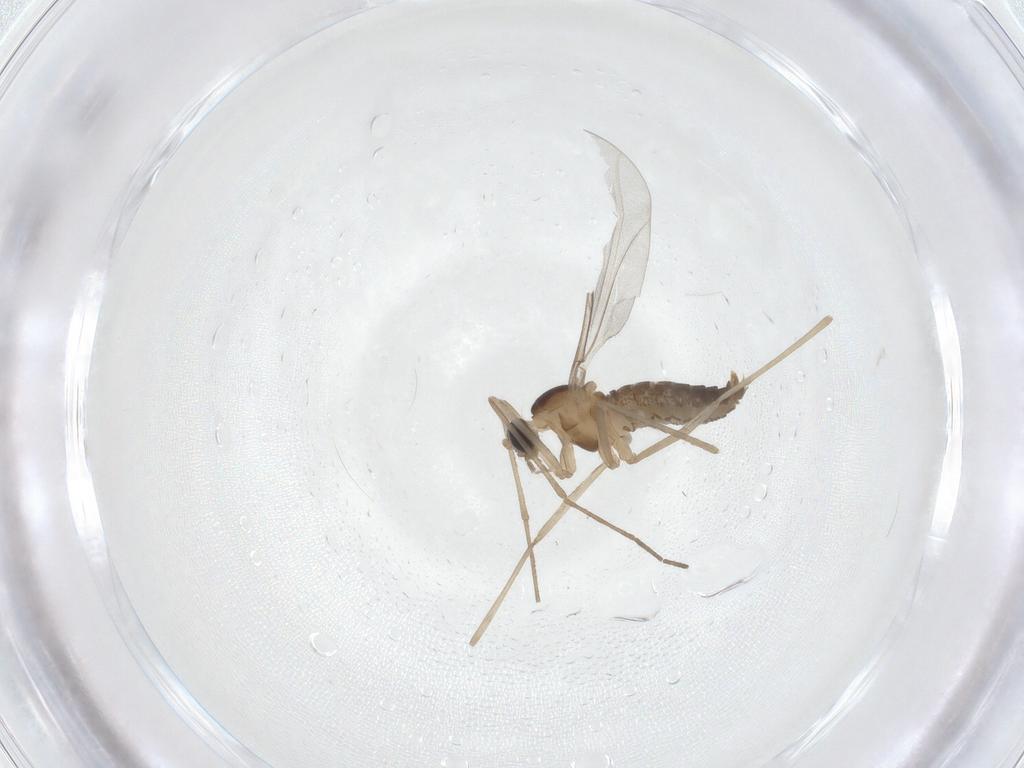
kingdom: Animalia
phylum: Arthropoda
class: Insecta
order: Diptera
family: Cecidomyiidae
